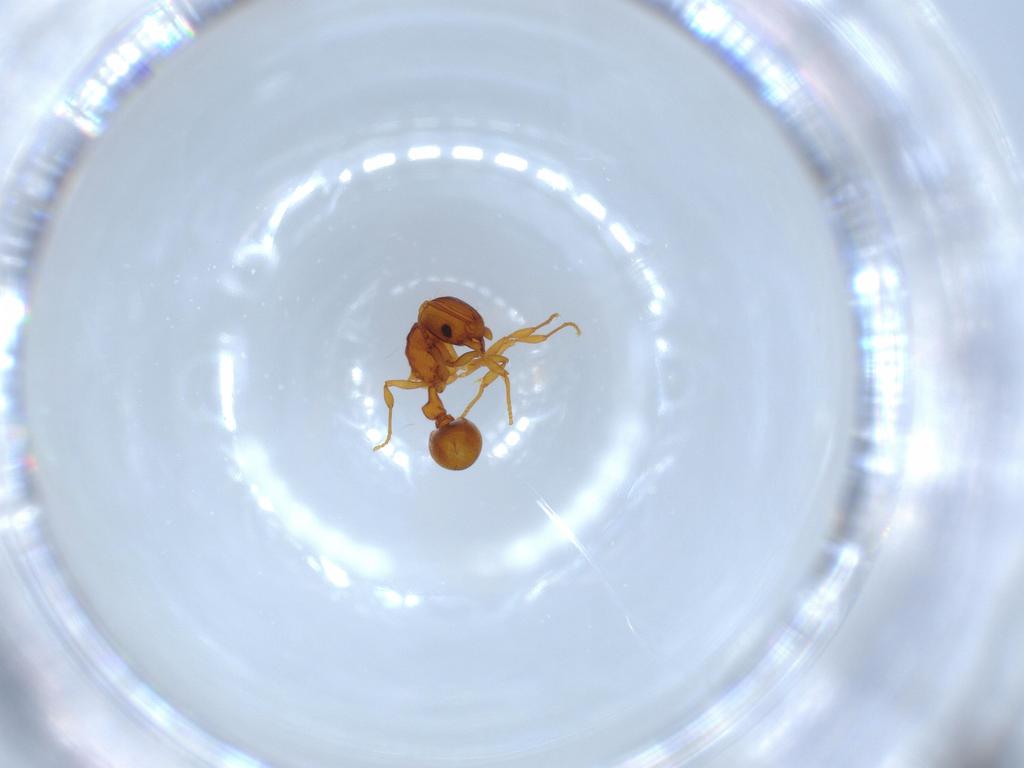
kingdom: Animalia
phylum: Arthropoda
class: Insecta
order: Hymenoptera
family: Formicidae
